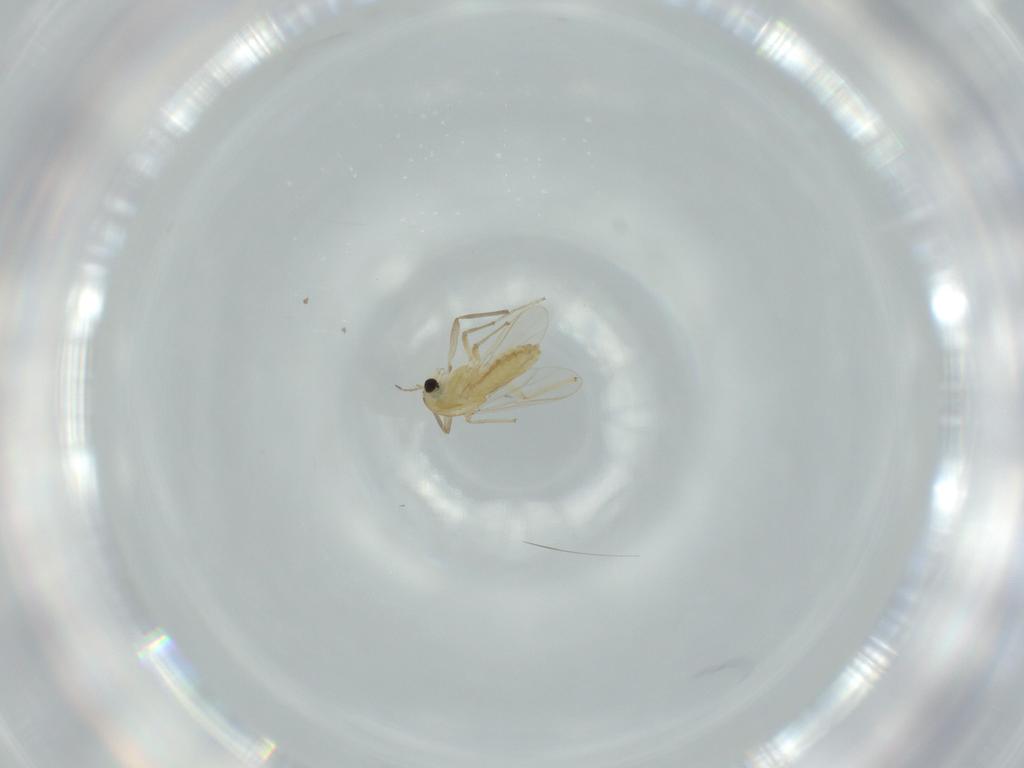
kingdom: Animalia
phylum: Arthropoda
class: Insecta
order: Diptera
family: Chironomidae
